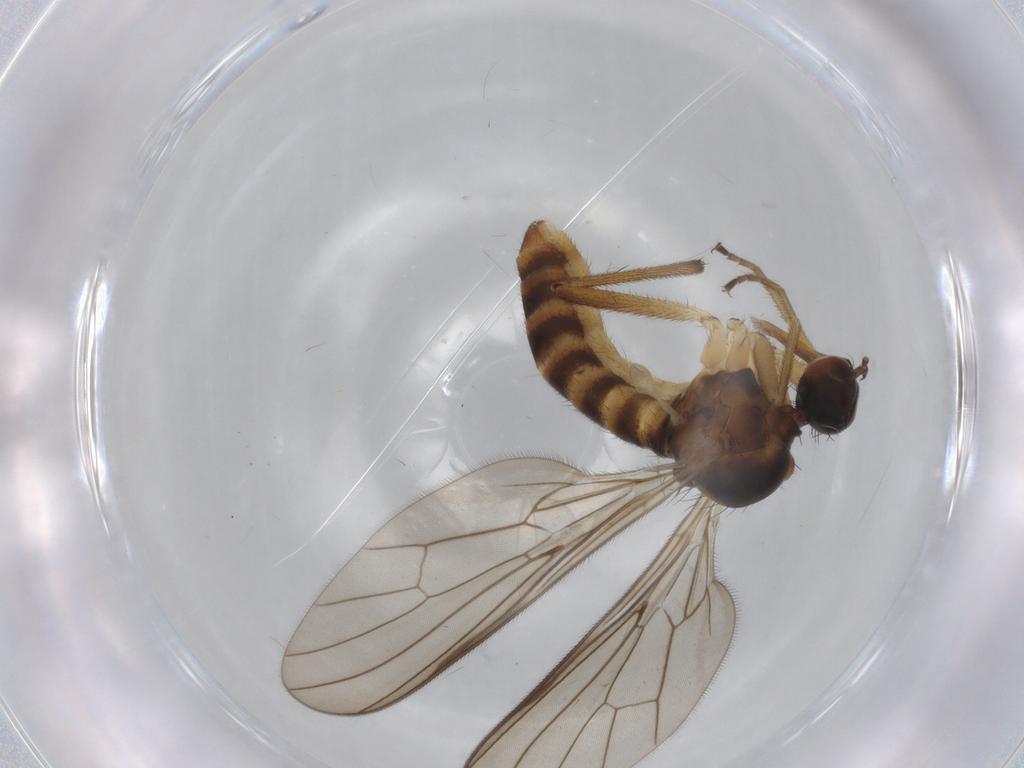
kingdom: Animalia
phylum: Arthropoda
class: Insecta
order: Diptera
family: Empididae
